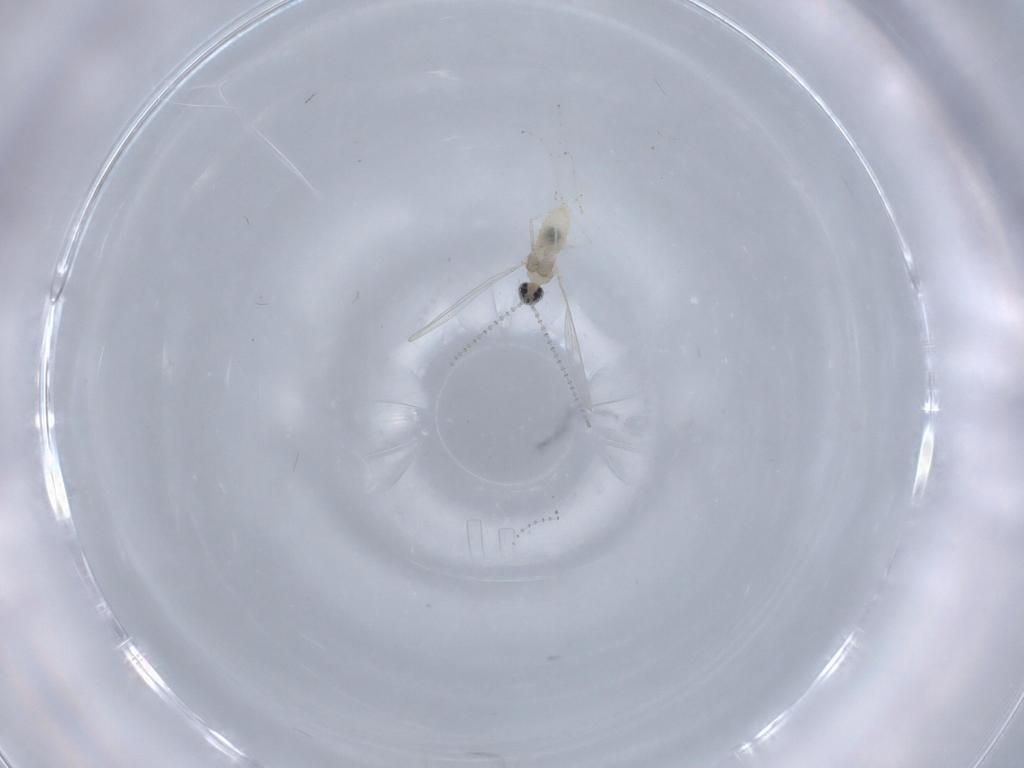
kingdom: Animalia
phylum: Arthropoda
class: Insecta
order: Diptera
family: Cecidomyiidae
